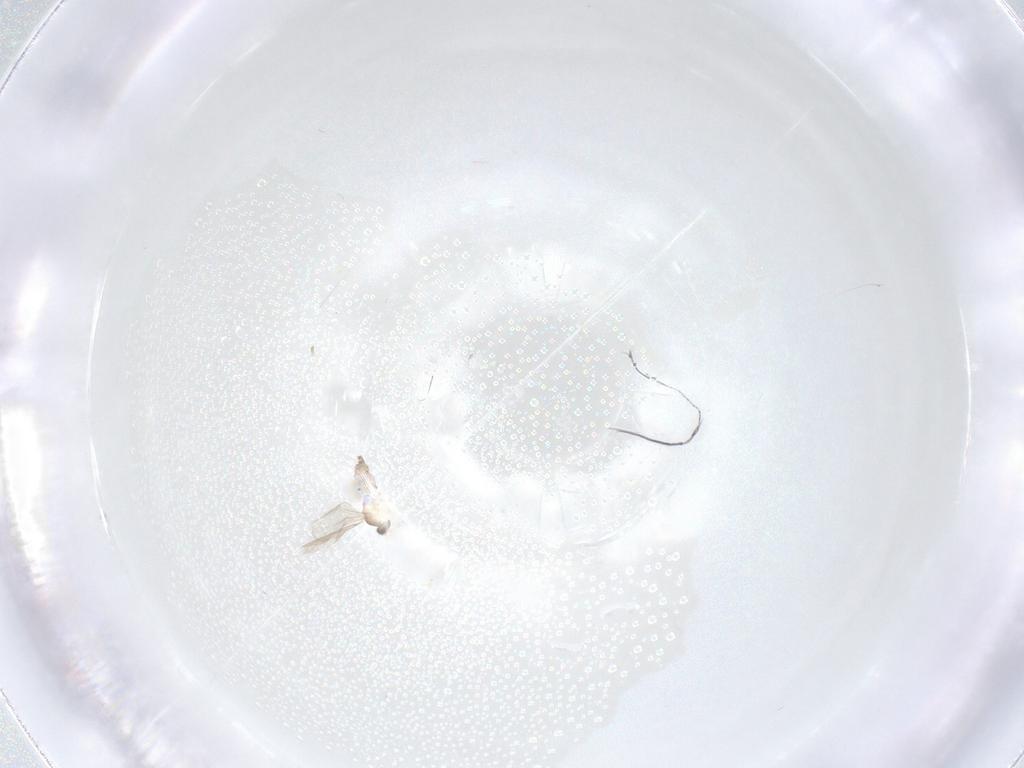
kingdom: Animalia
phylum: Arthropoda
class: Insecta
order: Diptera
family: Cecidomyiidae
